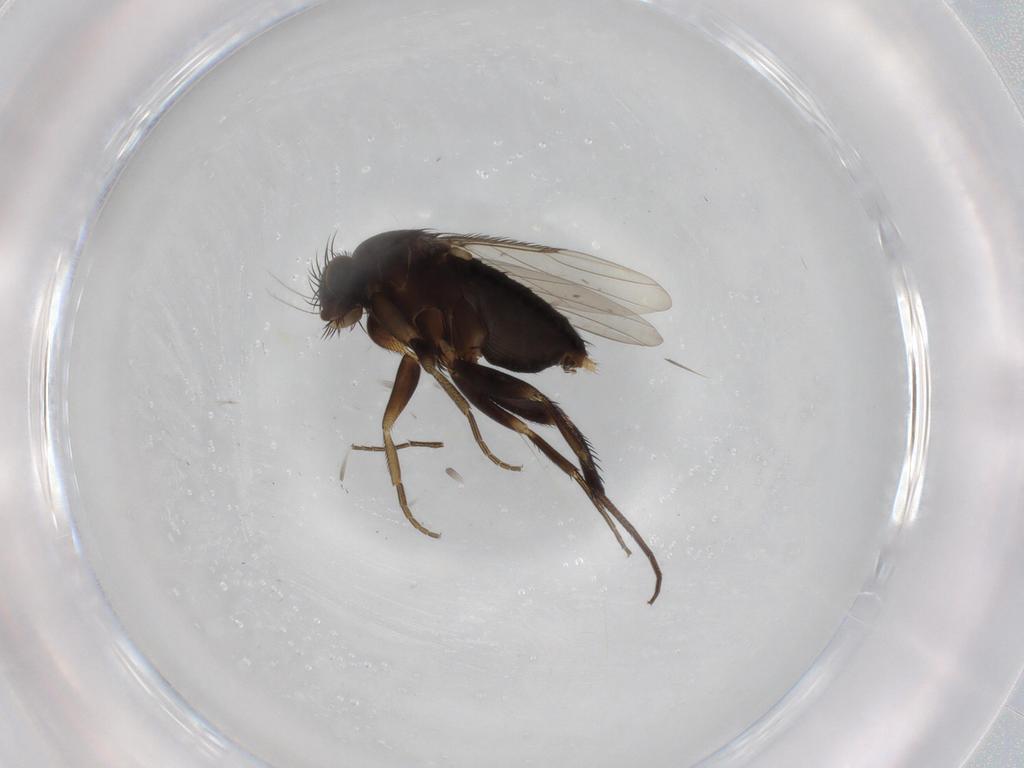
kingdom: Animalia
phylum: Arthropoda
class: Insecta
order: Diptera
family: Phoridae
